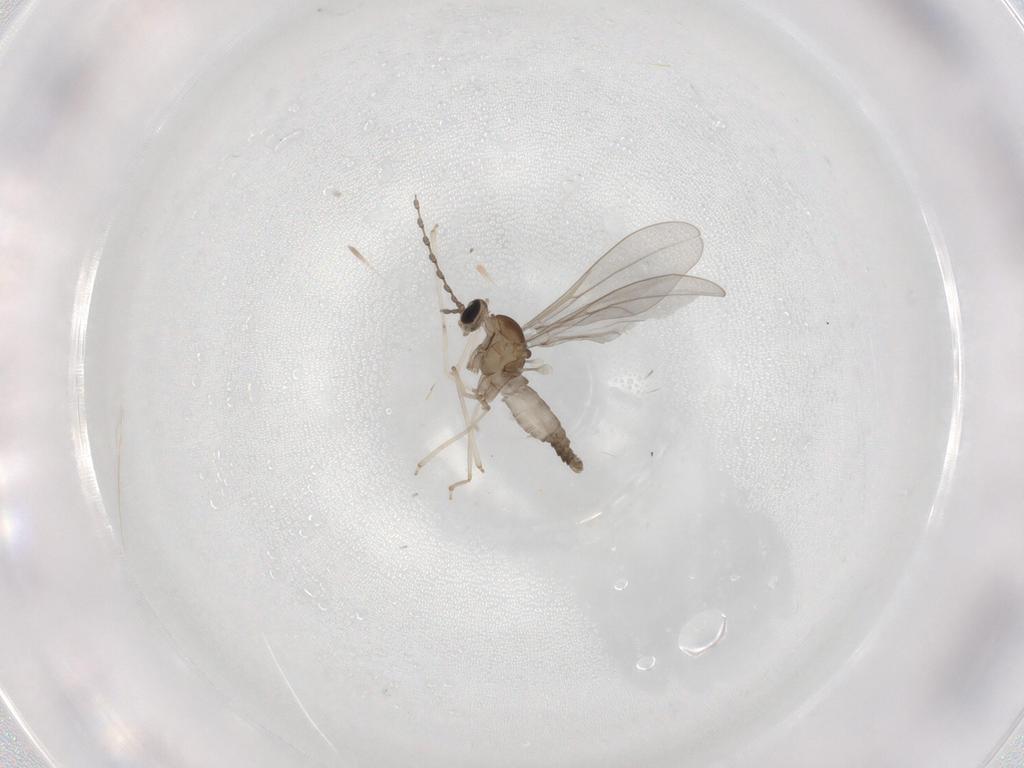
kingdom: Animalia
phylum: Arthropoda
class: Insecta
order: Diptera
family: Cecidomyiidae
